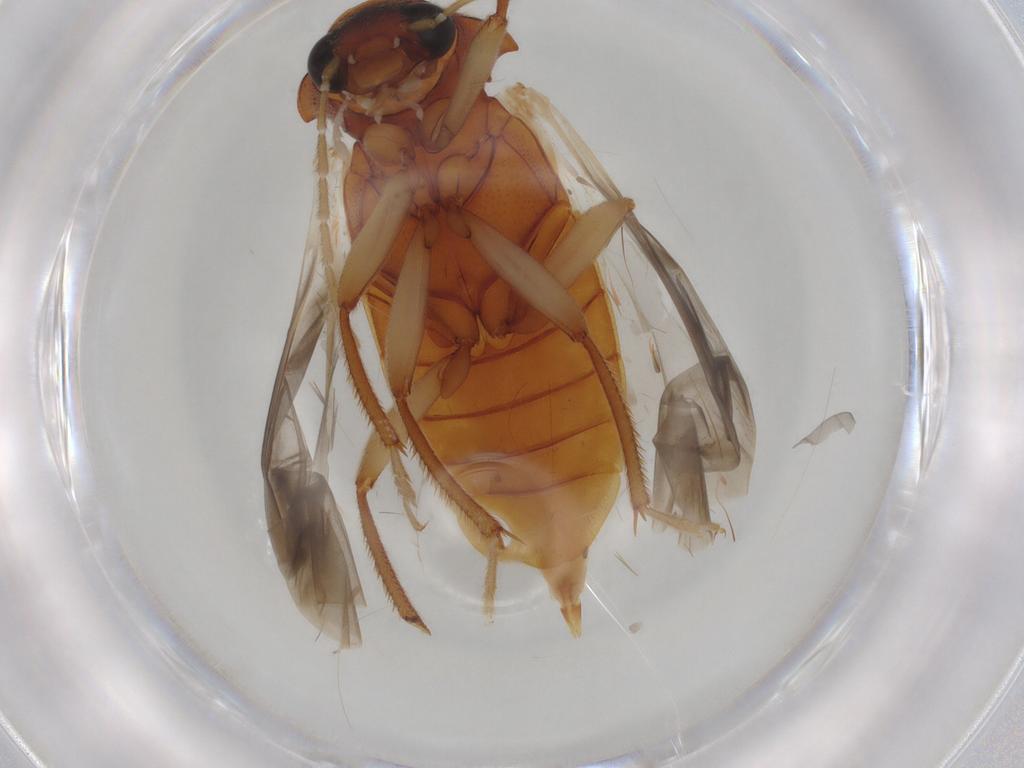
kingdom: Animalia
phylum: Arthropoda
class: Insecta
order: Coleoptera
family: Ptilodactylidae
